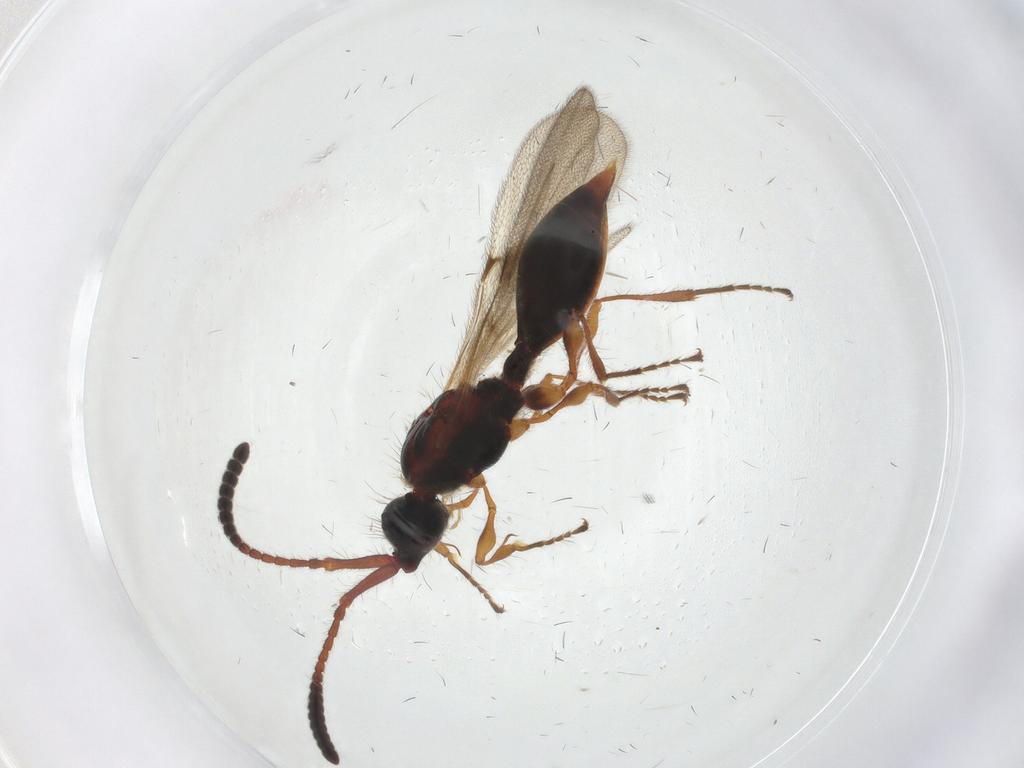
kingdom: Animalia
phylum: Arthropoda
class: Insecta
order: Hymenoptera
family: Diapriidae
